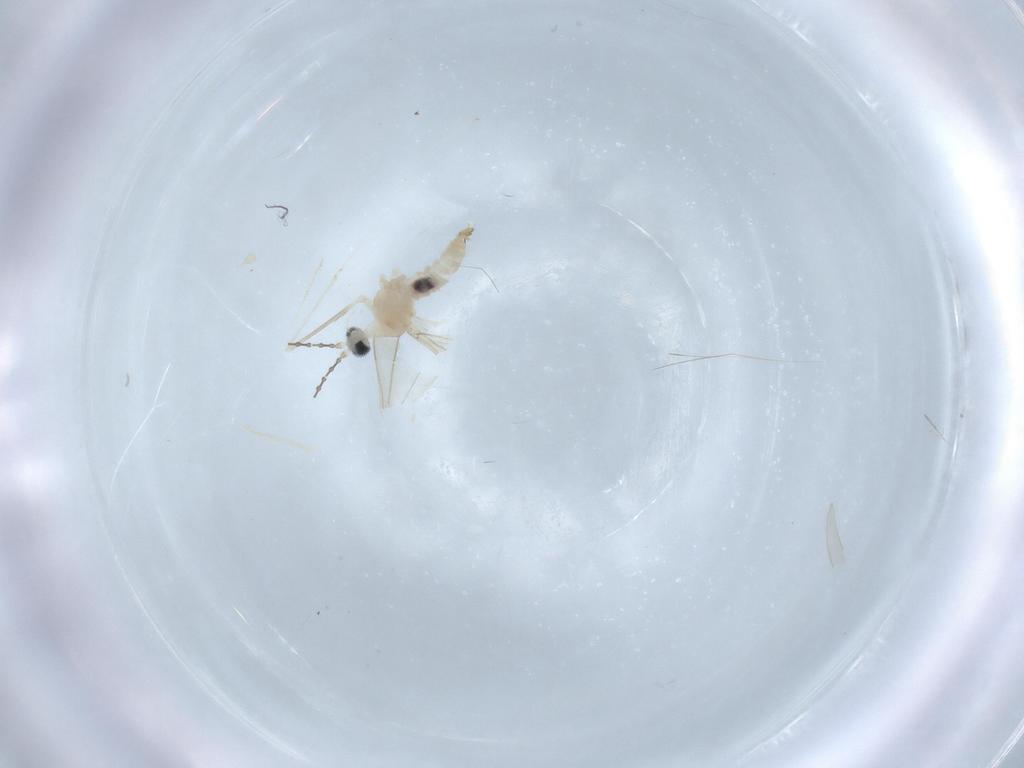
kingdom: Animalia
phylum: Arthropoda
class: Insecta
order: Diptera
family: Cecidomyiidae
